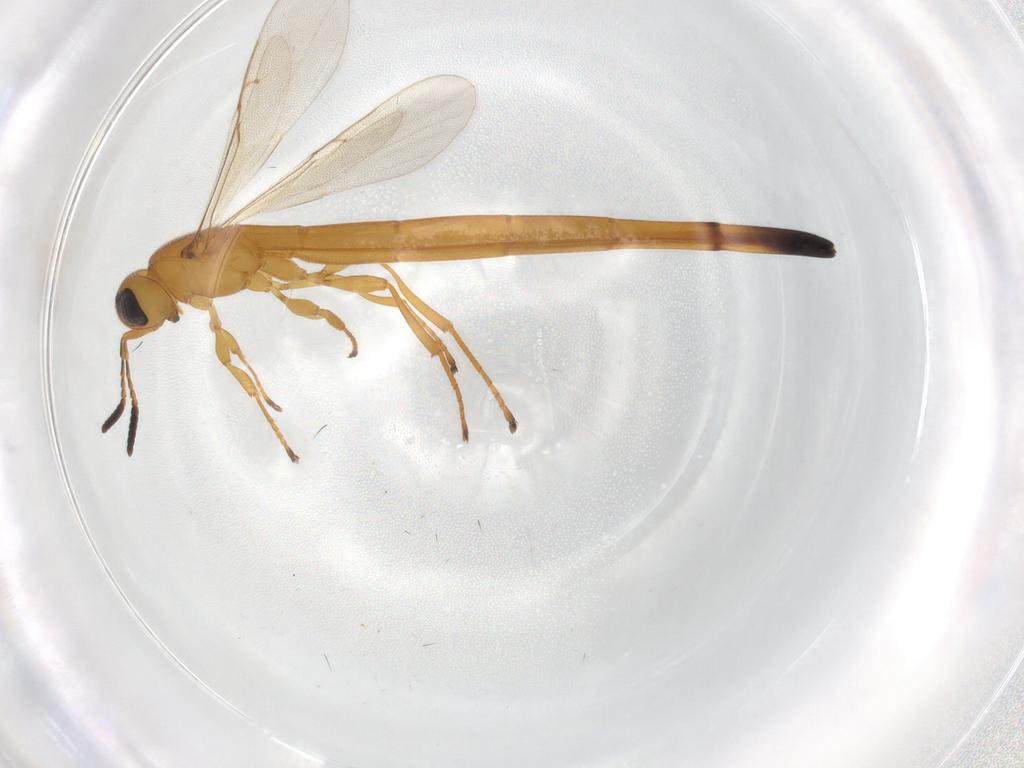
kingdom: Animalia
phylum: Arthropoda
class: Insecta
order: Hymenoptera
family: Scelionidae
